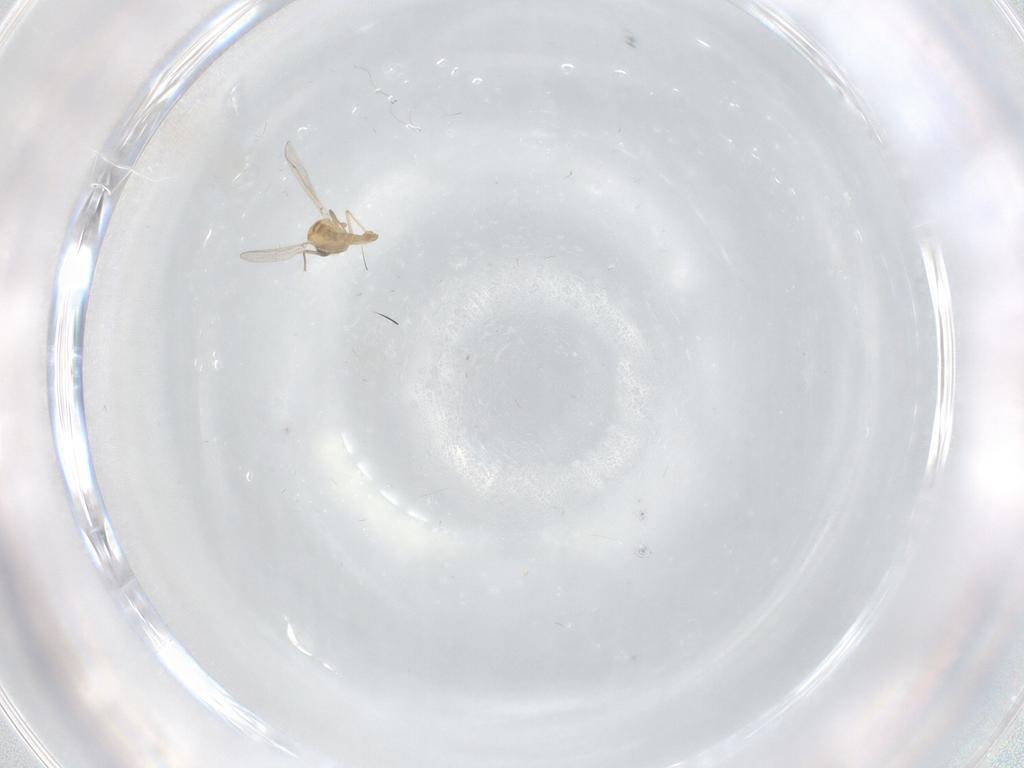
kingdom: Animalia
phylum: Arthropoda
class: Insecta
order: Diptera
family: Chironomidae
